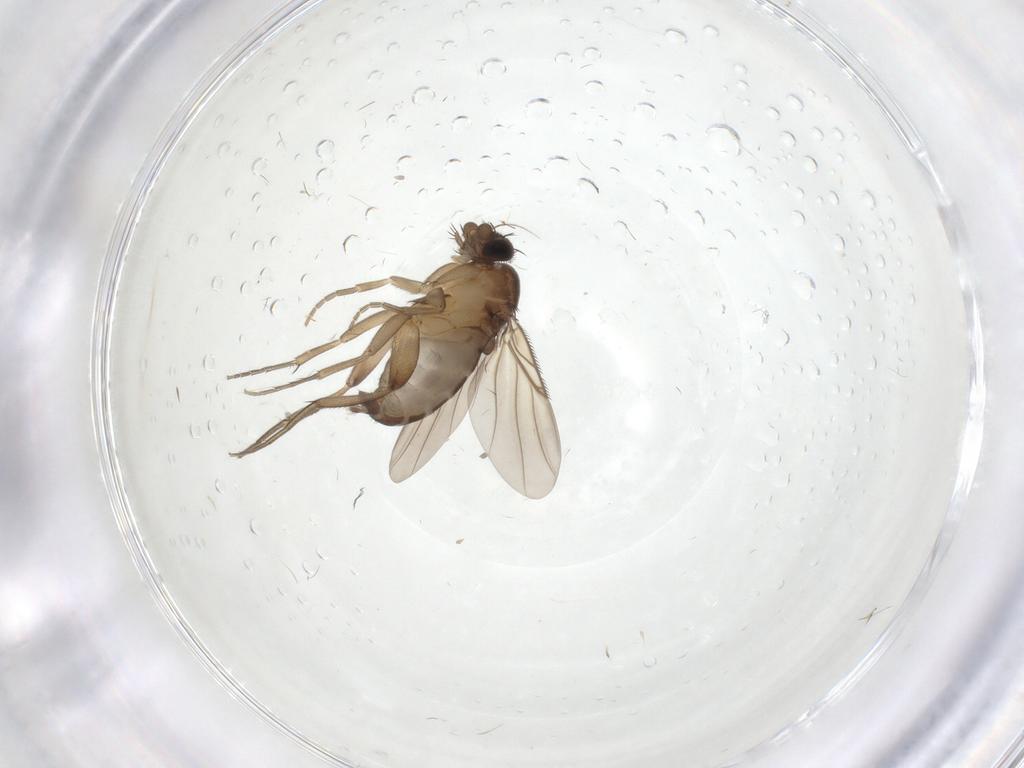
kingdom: Animalia
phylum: Arthropoda
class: Insecta
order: Diptera
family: Phoridae
